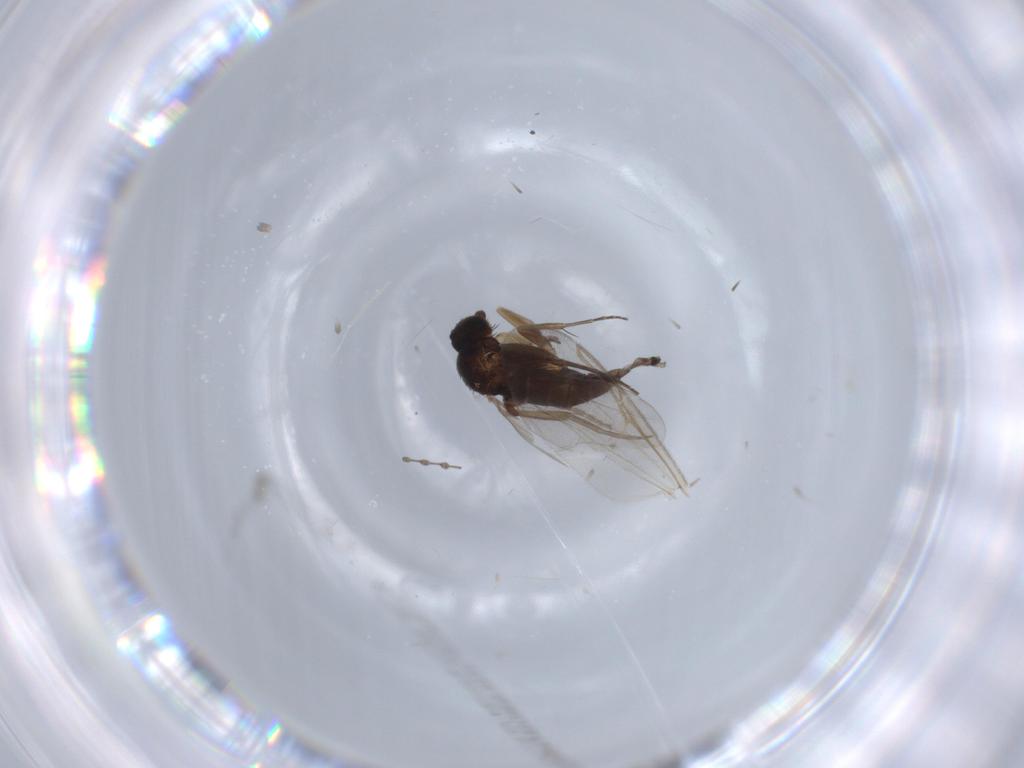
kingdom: Animalia
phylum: Arthropoda
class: Insecta
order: Diptera
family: Ceratopogonidae
